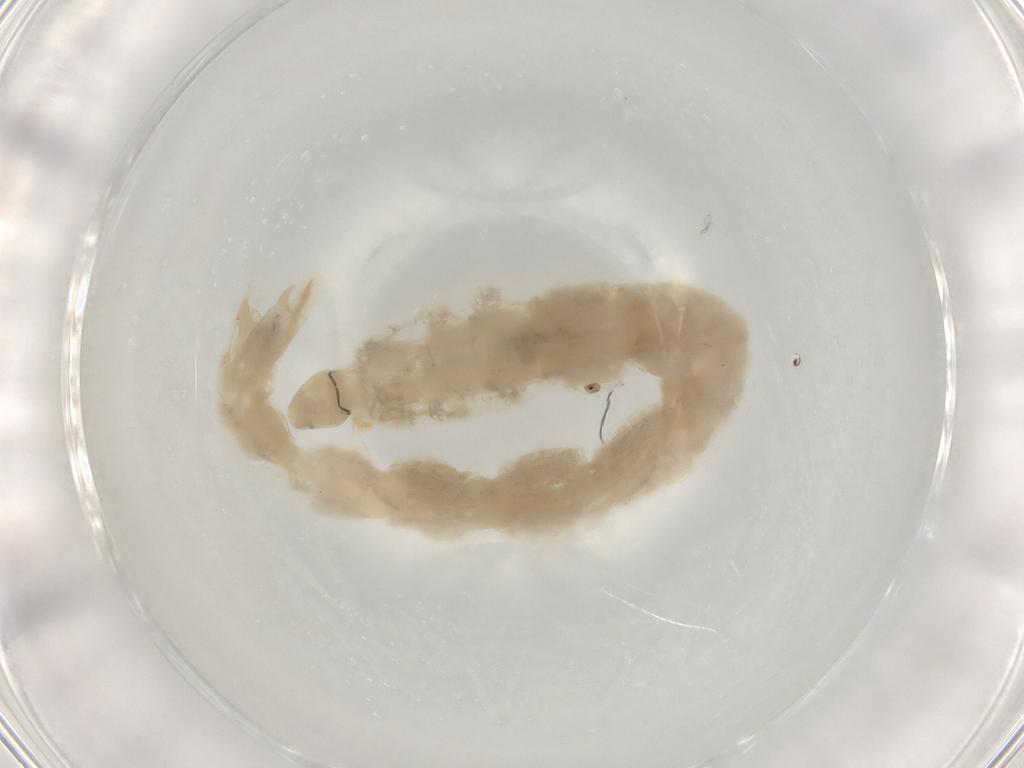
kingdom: Animalia
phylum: Arthropoda
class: Insecta
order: Diptera
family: Chironomidae
